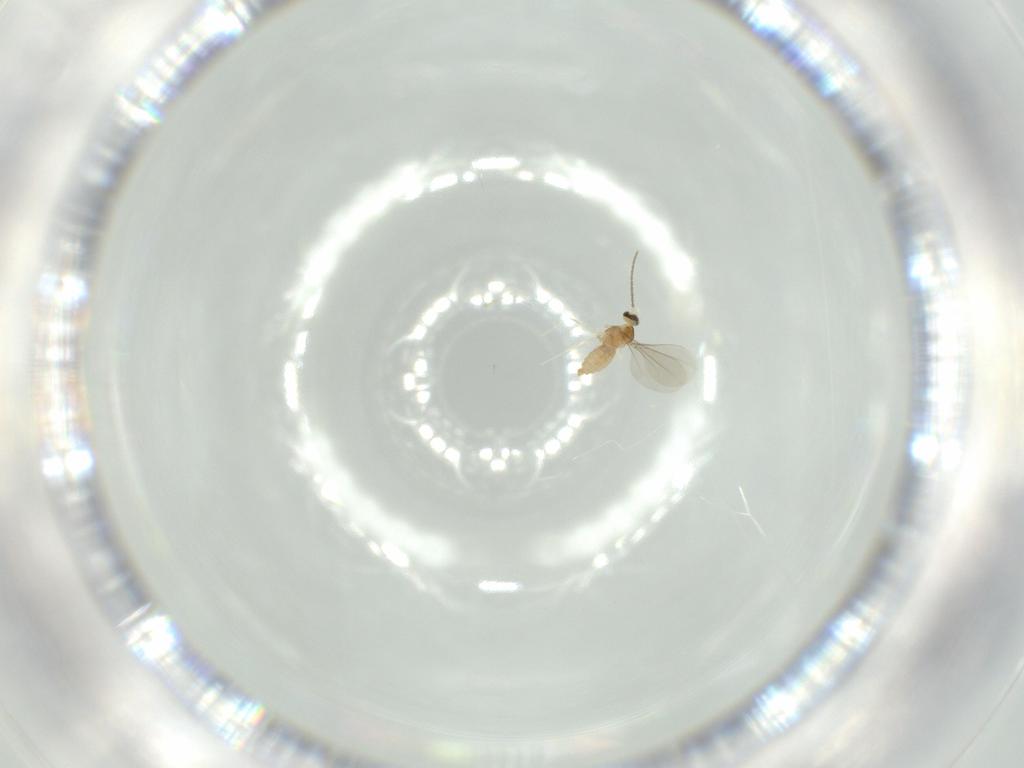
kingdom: Animalia
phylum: Arthropoda
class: Insecta
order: Diptera
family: Cecidomyiidae
